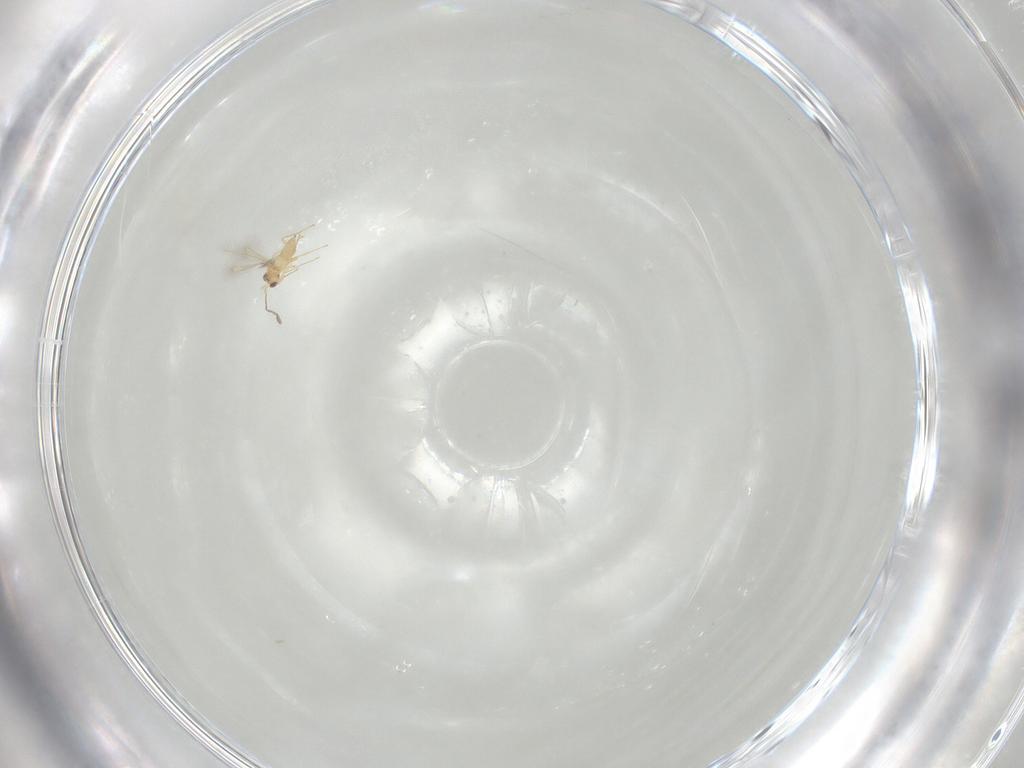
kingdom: Animalia
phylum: Arthropoda
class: Insecta
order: Hymenoptera
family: Mymaridae
